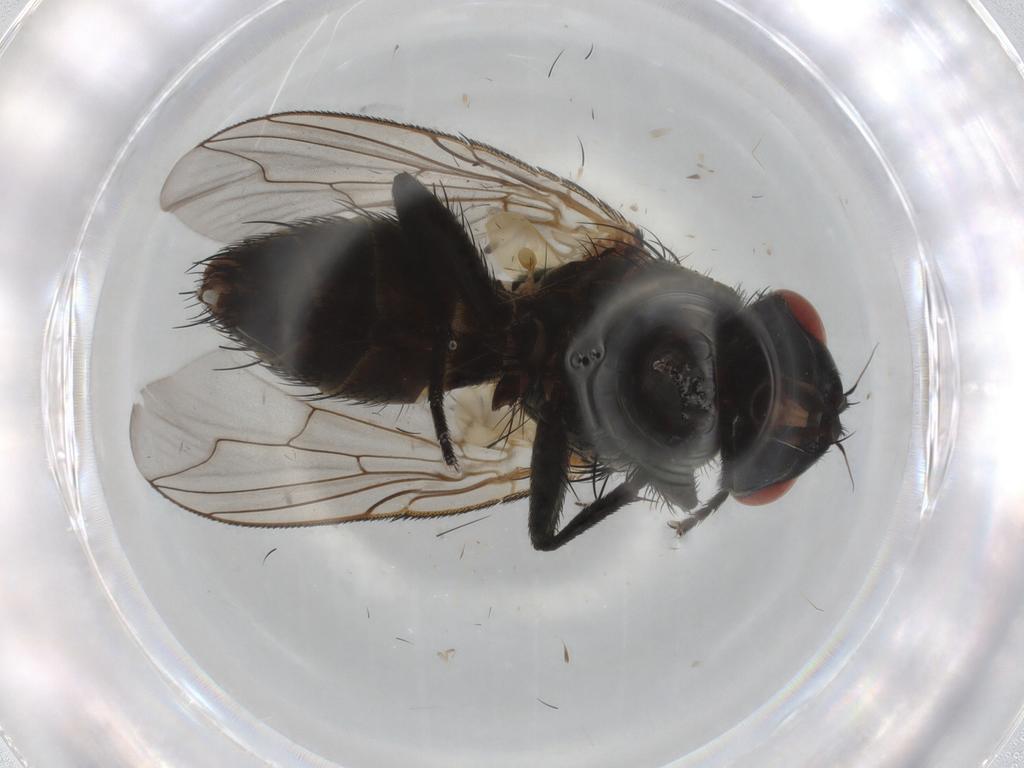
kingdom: Animalia
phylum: Arthropoda
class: Insecta
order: Diptera
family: Sarcophagidae
